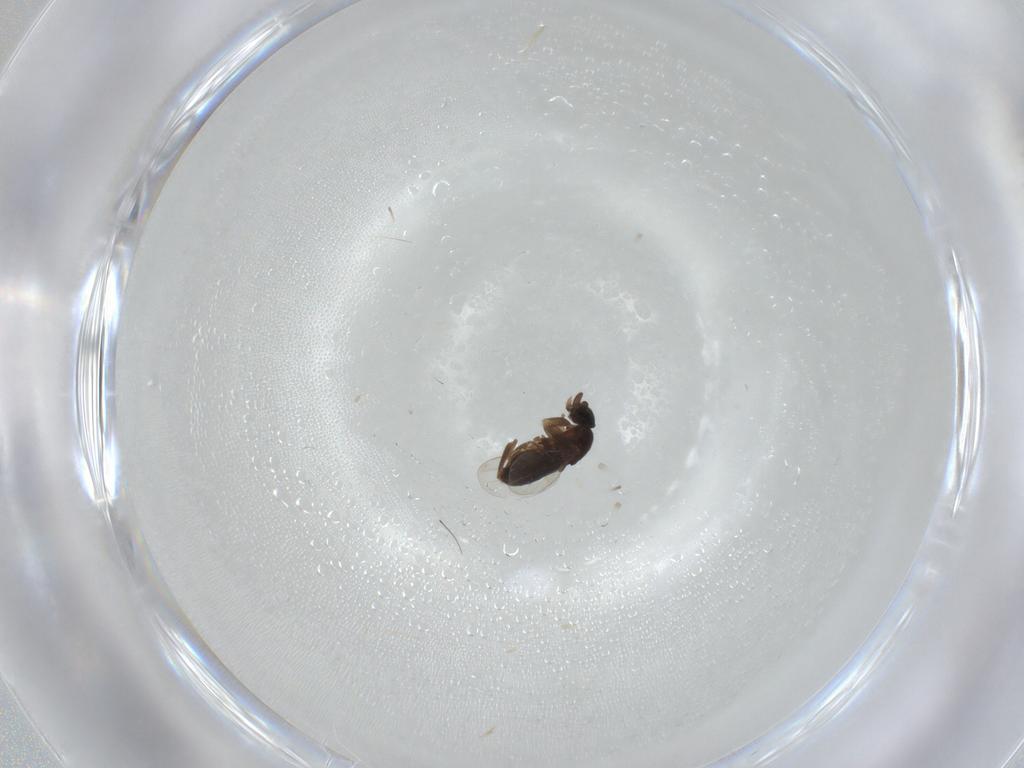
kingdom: Animalia
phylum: Arthropoda
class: Insecta
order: Diptera
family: Phoridae
